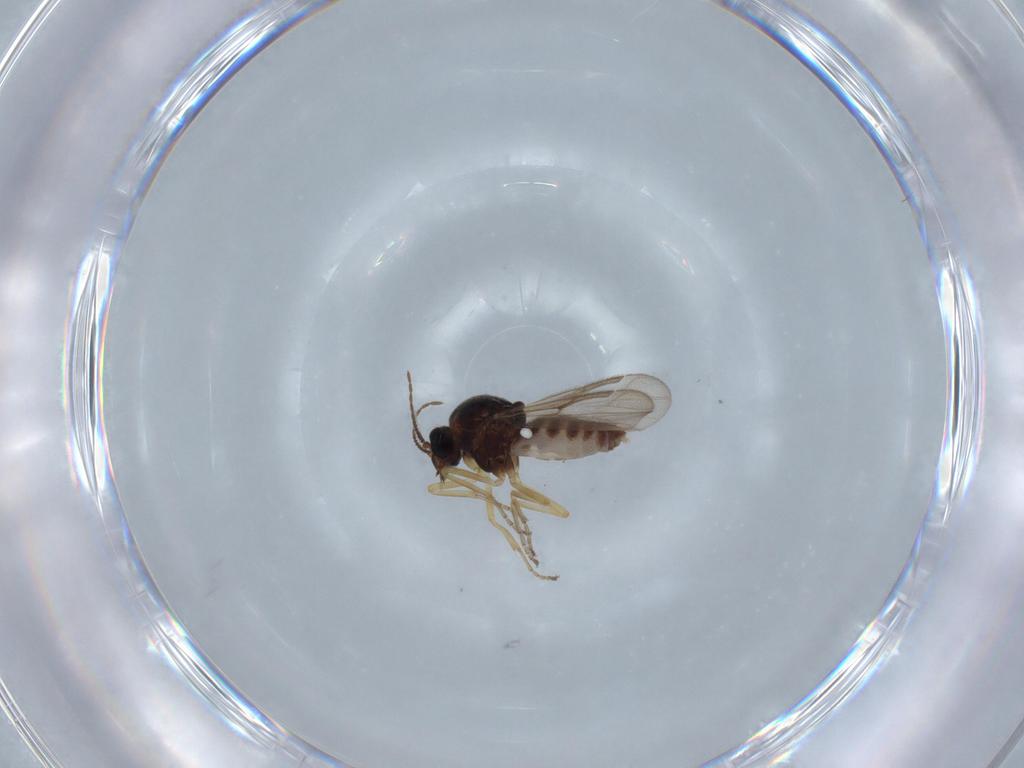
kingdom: Animalia
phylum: Arthropoda
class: Insecta
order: Diptera
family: Ceratopogonidae
